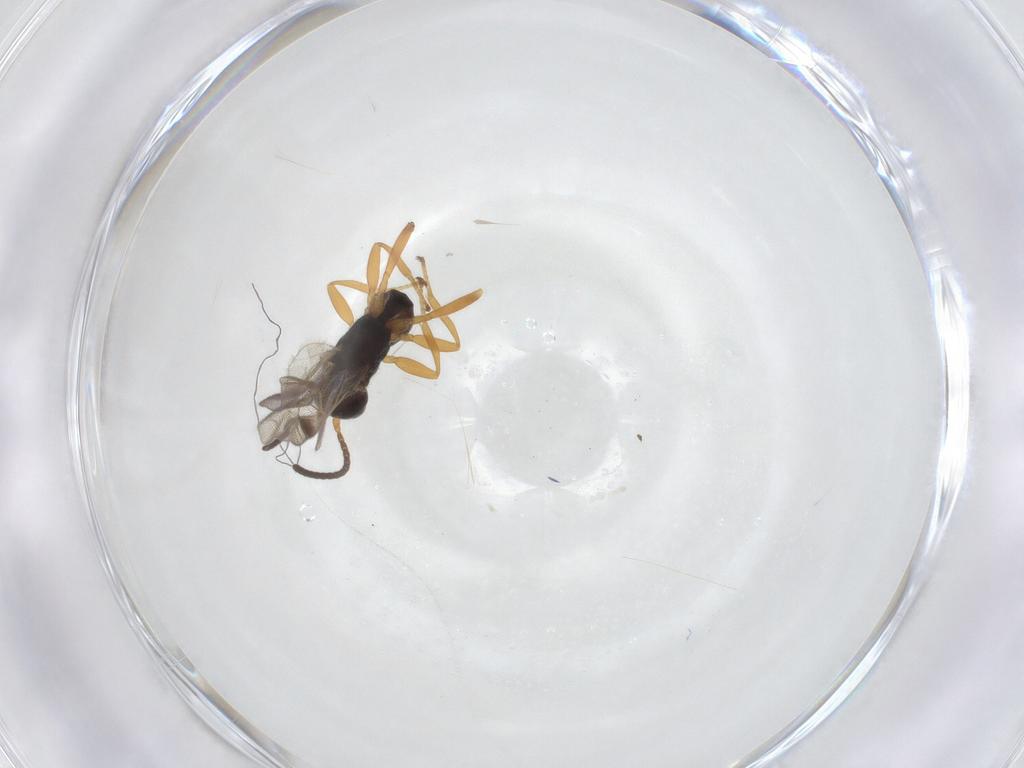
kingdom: Animalia
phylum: Arthropoda
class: Insecta
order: Hymenoptera
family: Braconidae
